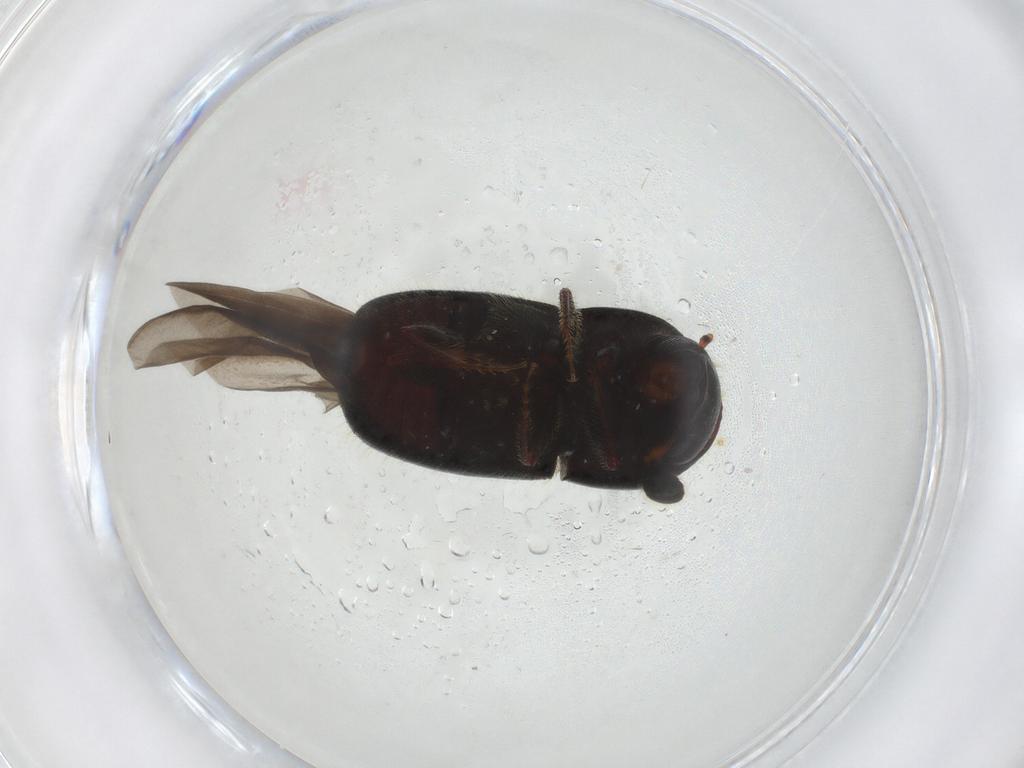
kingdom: Animalia
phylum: Arthropoda
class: Insecta
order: Coleoptera
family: Curculionidae
